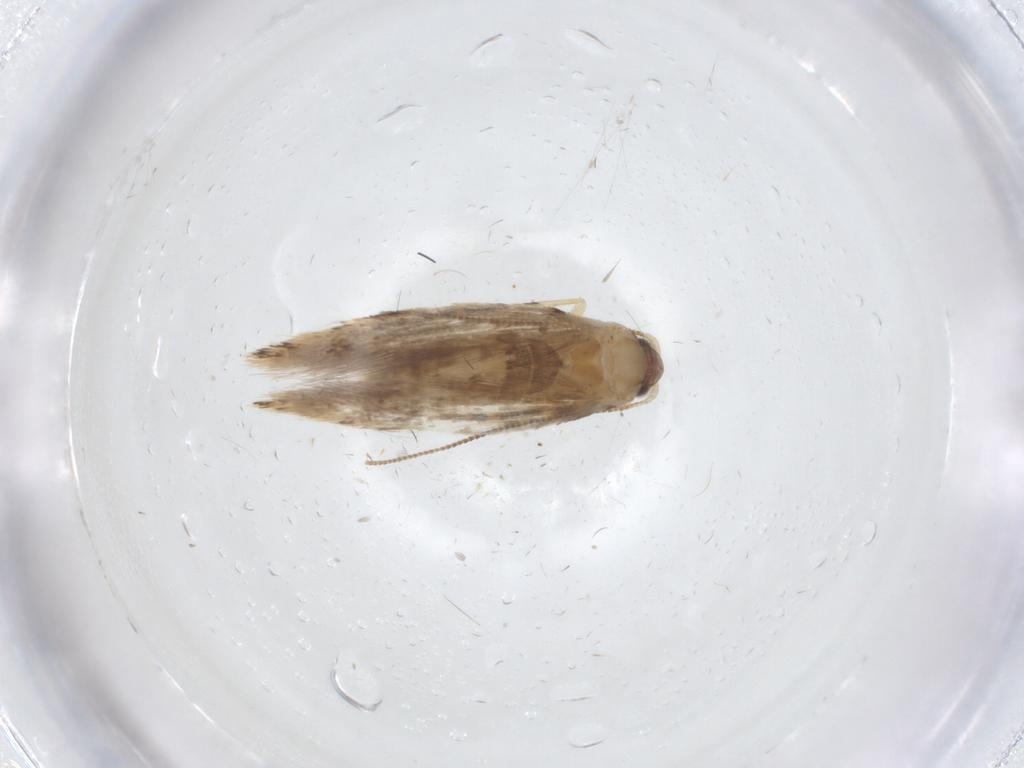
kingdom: Animalia
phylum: Arthropoda
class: Insecta
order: Lepidoptera
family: Tineidae
